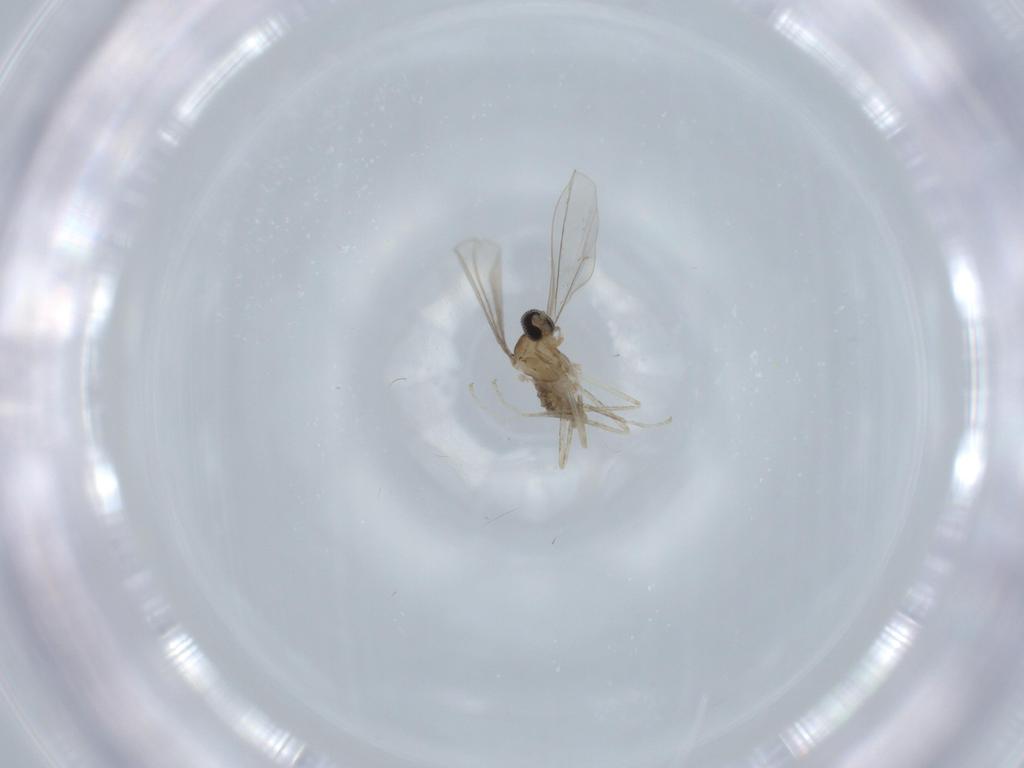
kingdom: Animalia
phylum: Arthropoda
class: Insecta
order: Diptera
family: Cecidomyiidae
